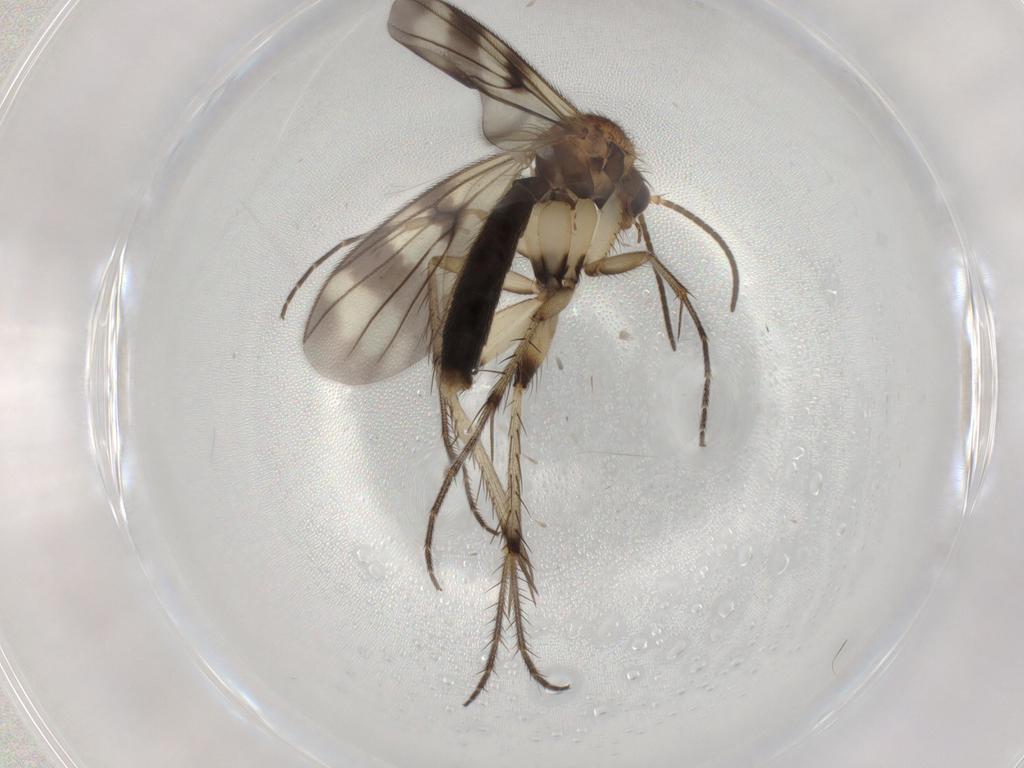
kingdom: Animalia
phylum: Arthropoda
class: Insecta
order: Diptera
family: Mycetophilidae
